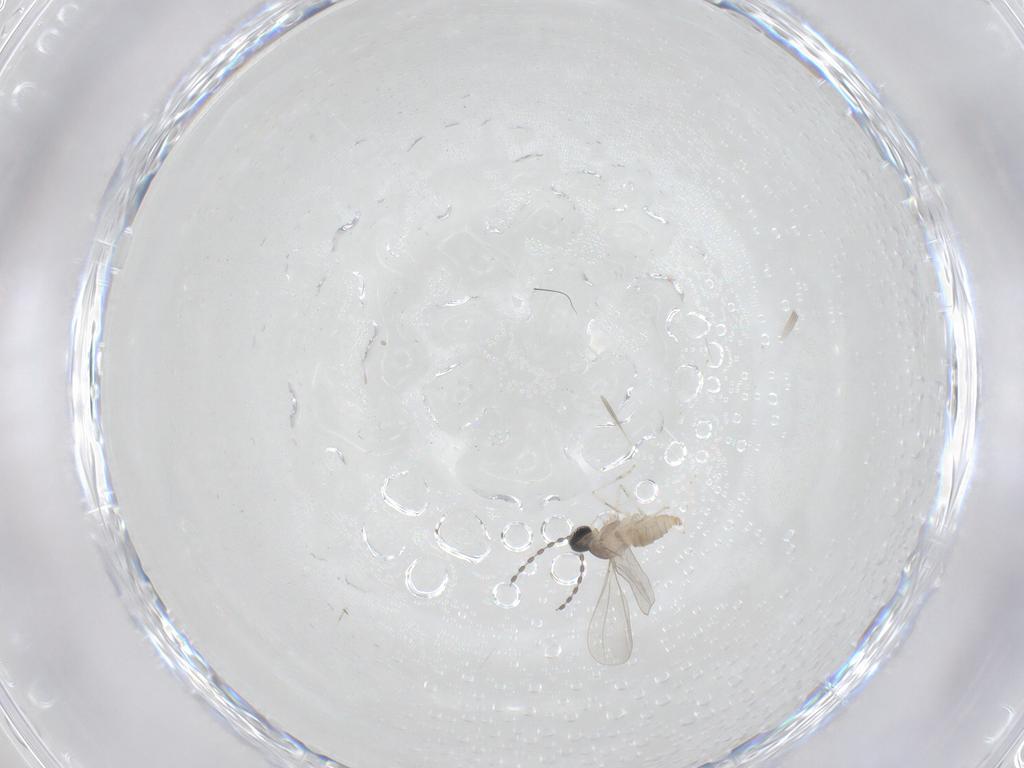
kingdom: Animalia
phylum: Arthropoda
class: Insecta
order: Diptera
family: Cecidomyiidae
